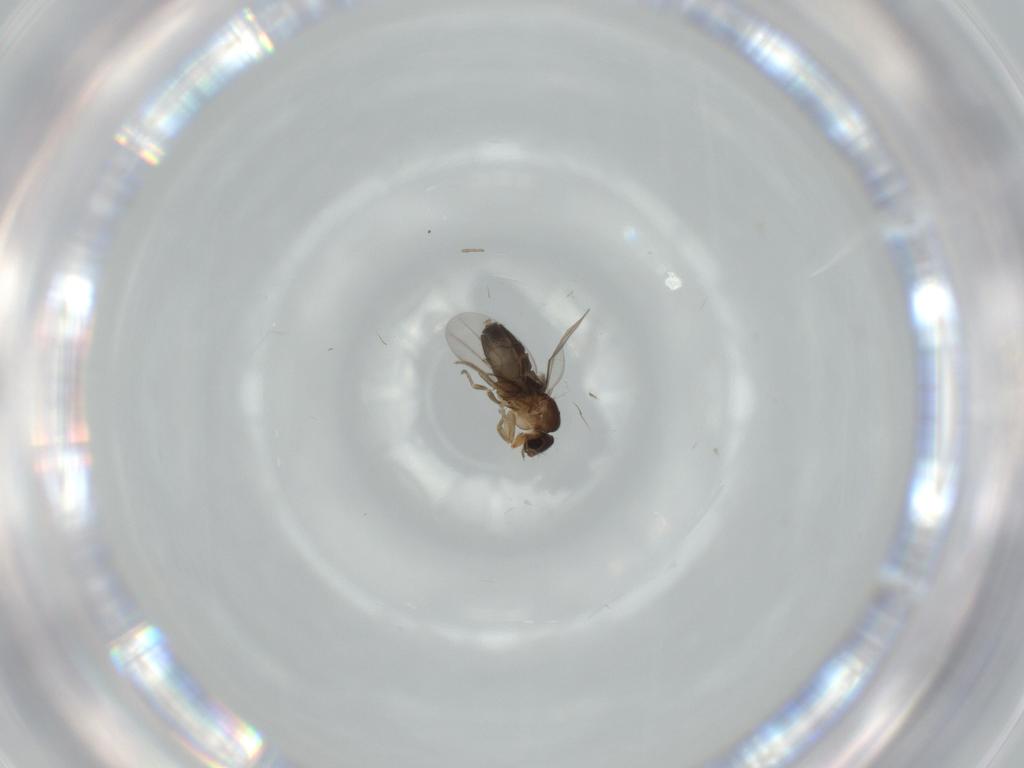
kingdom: Animalia
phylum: Arthropoda
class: Insecta
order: Diptera
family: Phoridae
